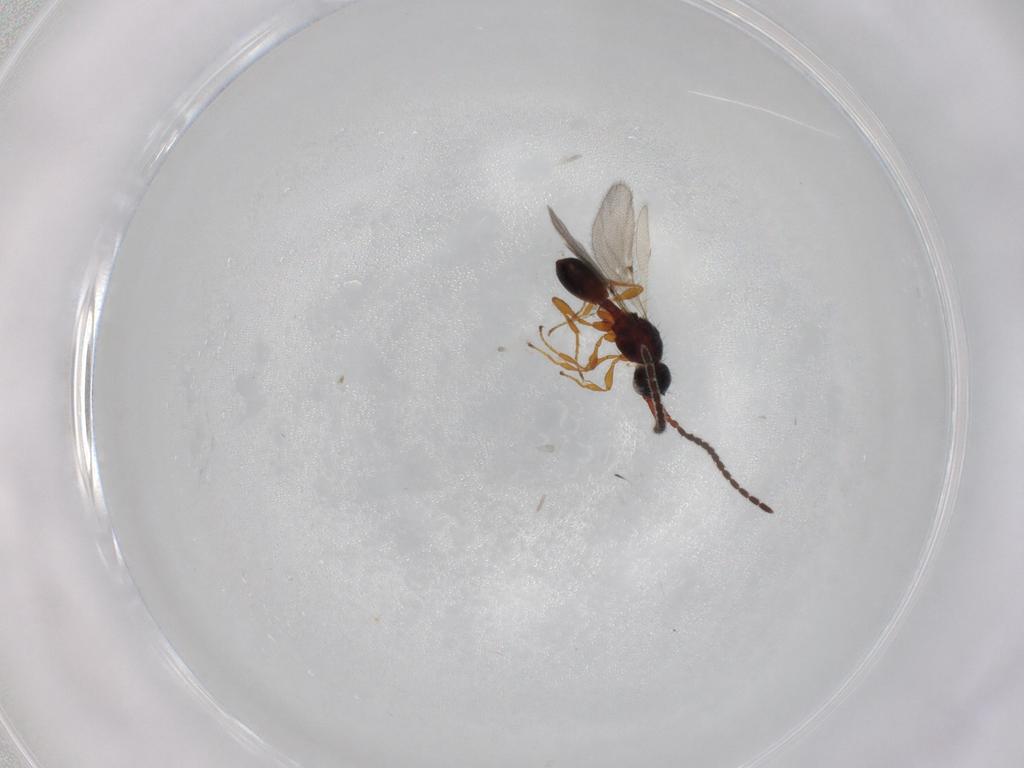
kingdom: Animalia
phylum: Arthropoda
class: Insecta
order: Hymenoptera
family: Diapriidae
